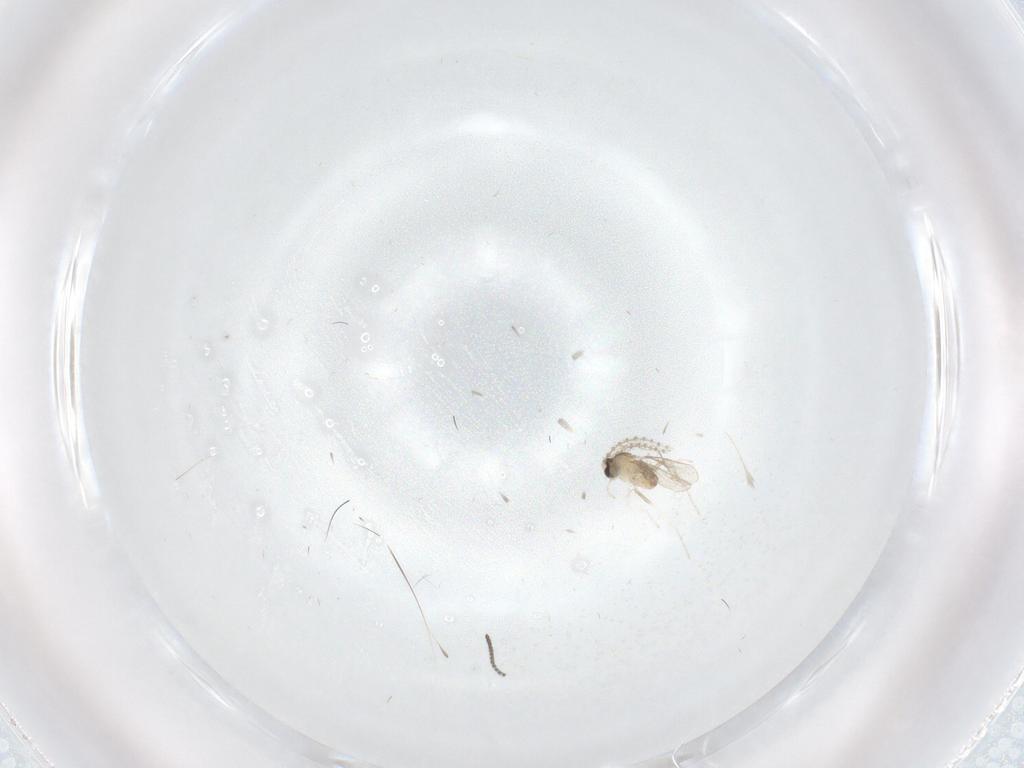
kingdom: Animalia
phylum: Arthropoda
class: Insecta
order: Diptera
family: Cecidomyiidae
